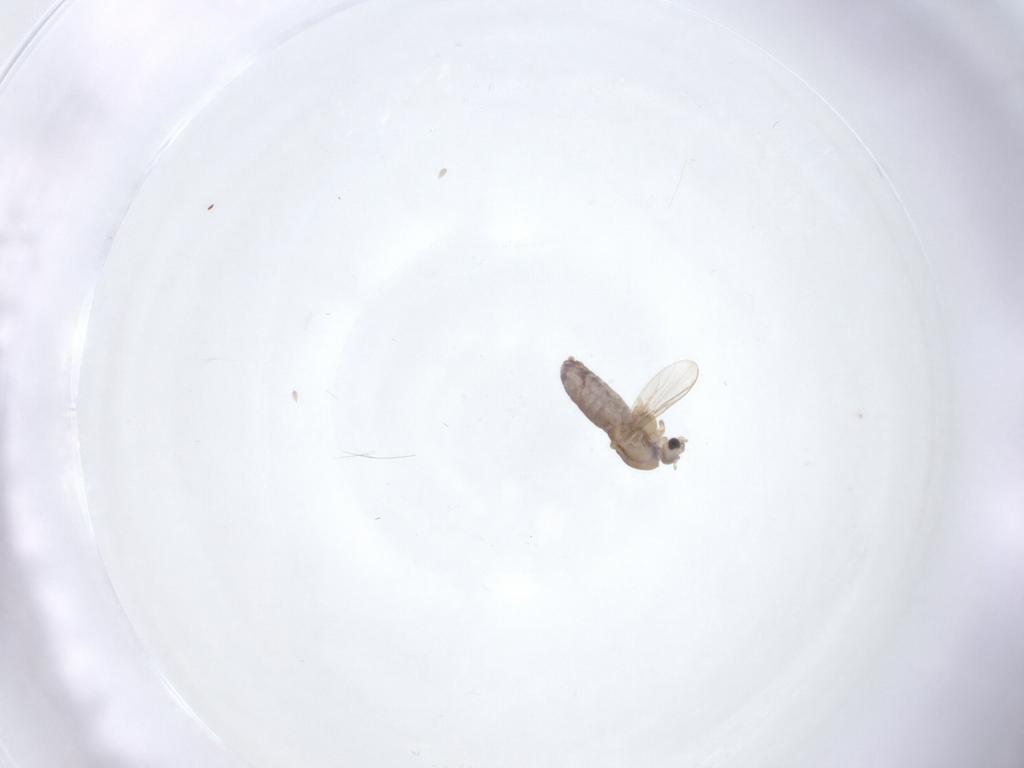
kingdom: Animalia
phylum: Arthropoda
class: Insecta
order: Diptera
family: Chironomidae
